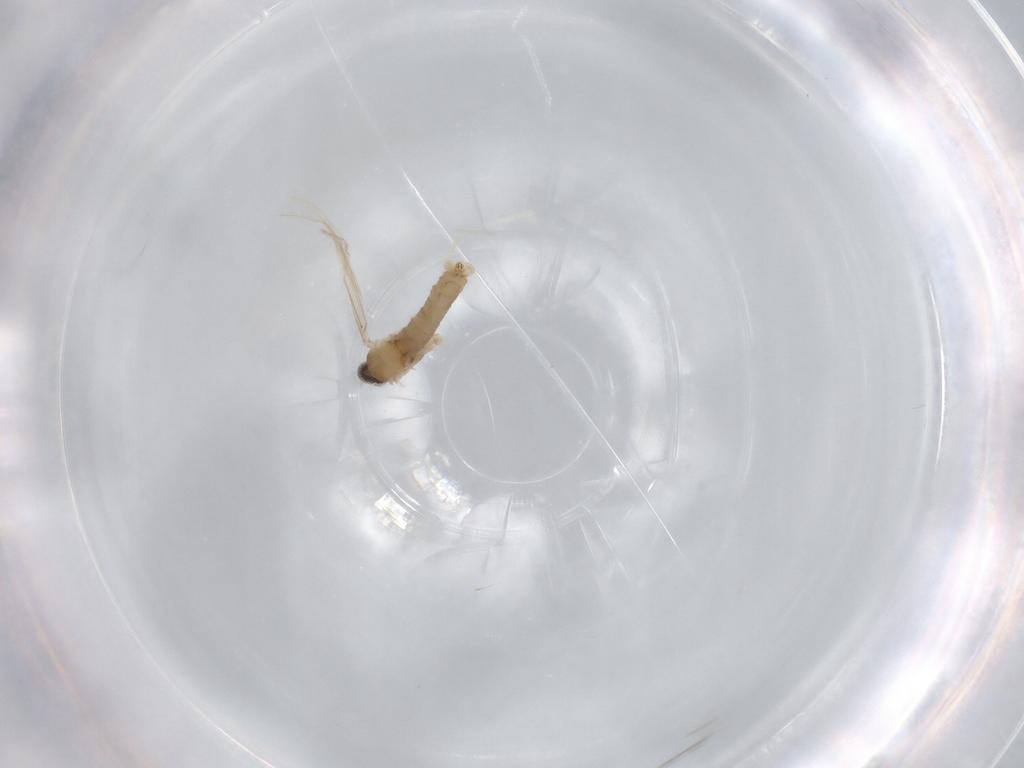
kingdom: Animalia
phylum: Arthropoda
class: Insecta
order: Diptera
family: Cecidomyiidae
